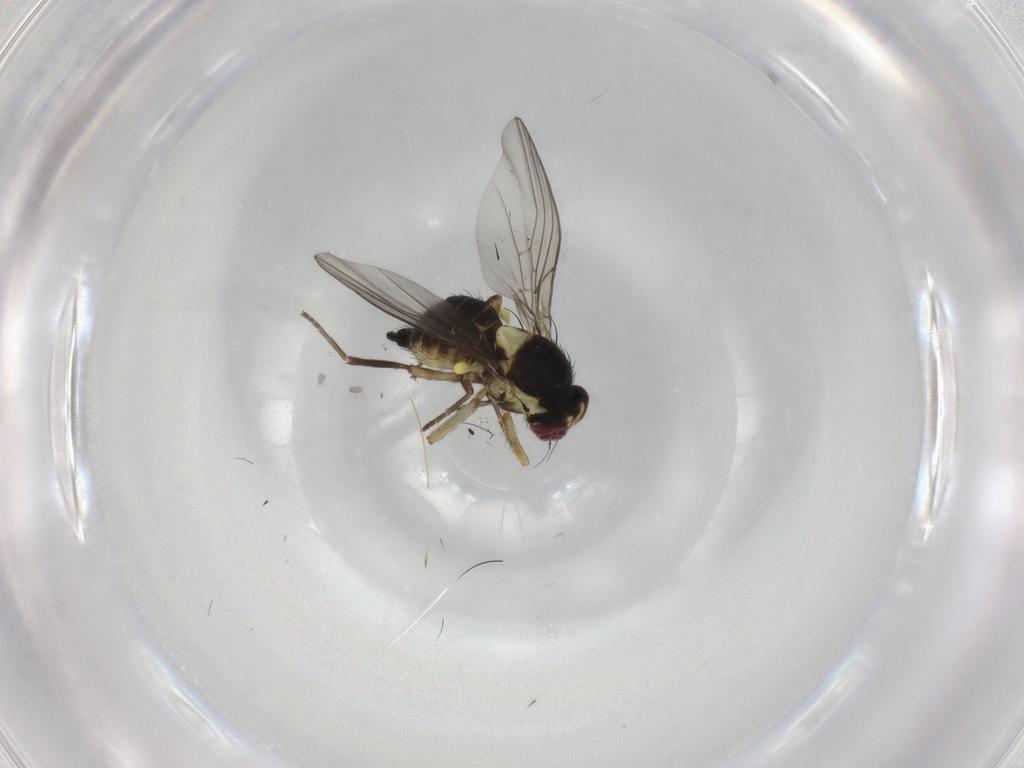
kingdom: Animalia
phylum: Arthropoda
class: Insecta
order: Diptera
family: Agromyzidae
